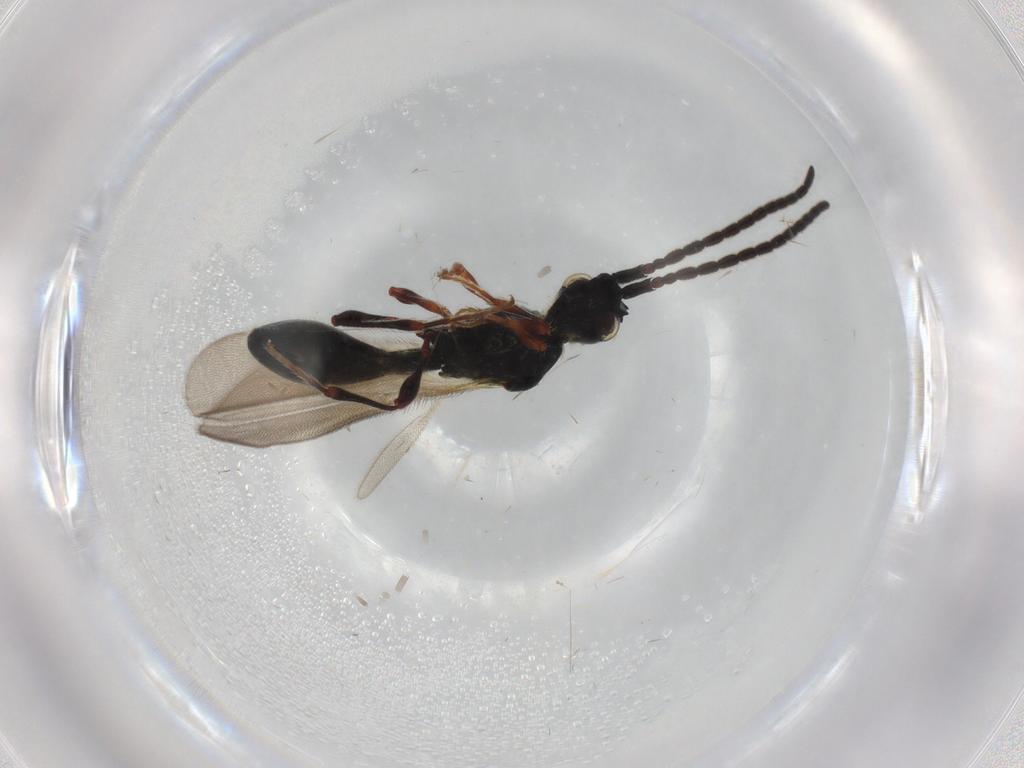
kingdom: Animalia
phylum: Arthropoda
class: Insecta
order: Hymenoptera
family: Diapriidae
